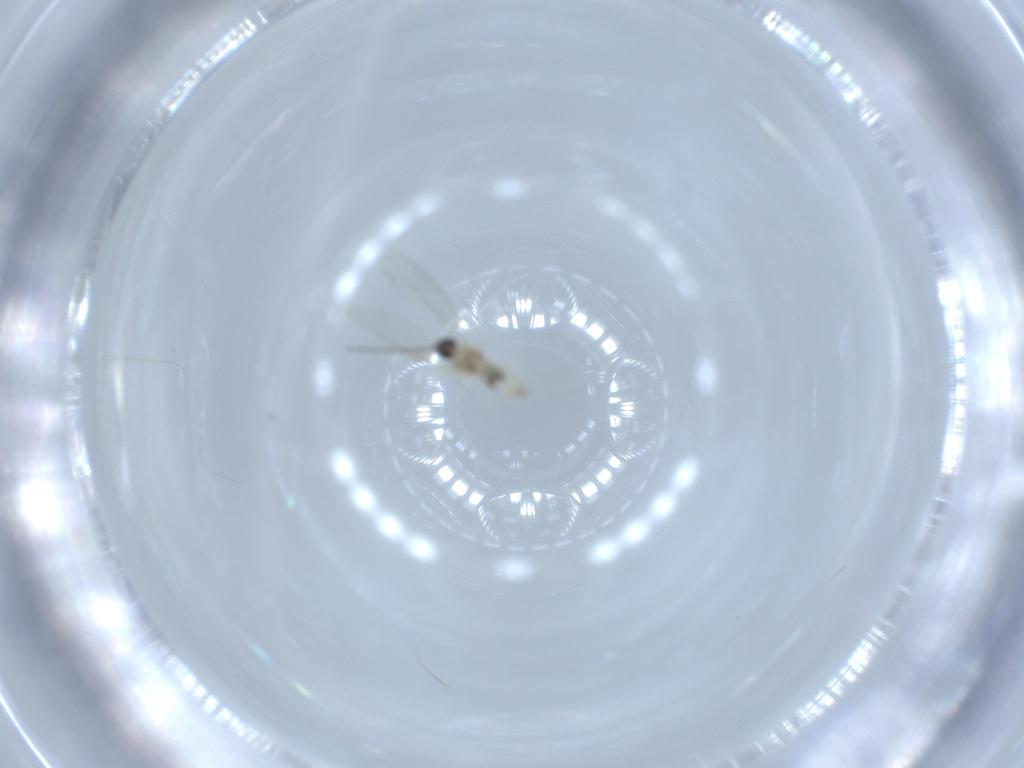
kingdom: Animalia
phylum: Arthropoda
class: Insecta
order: Diptera
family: Cecidomyiidae
